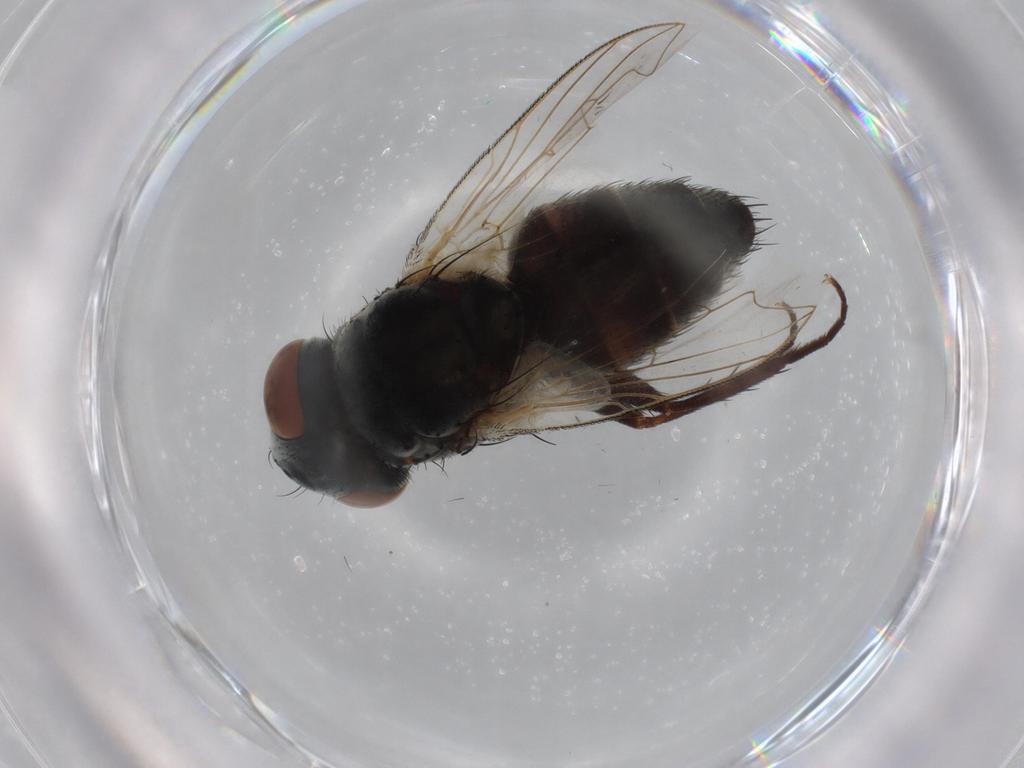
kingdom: Animalia
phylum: Arthropoda
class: Insecta
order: Diptera
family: Sarcophagidae
